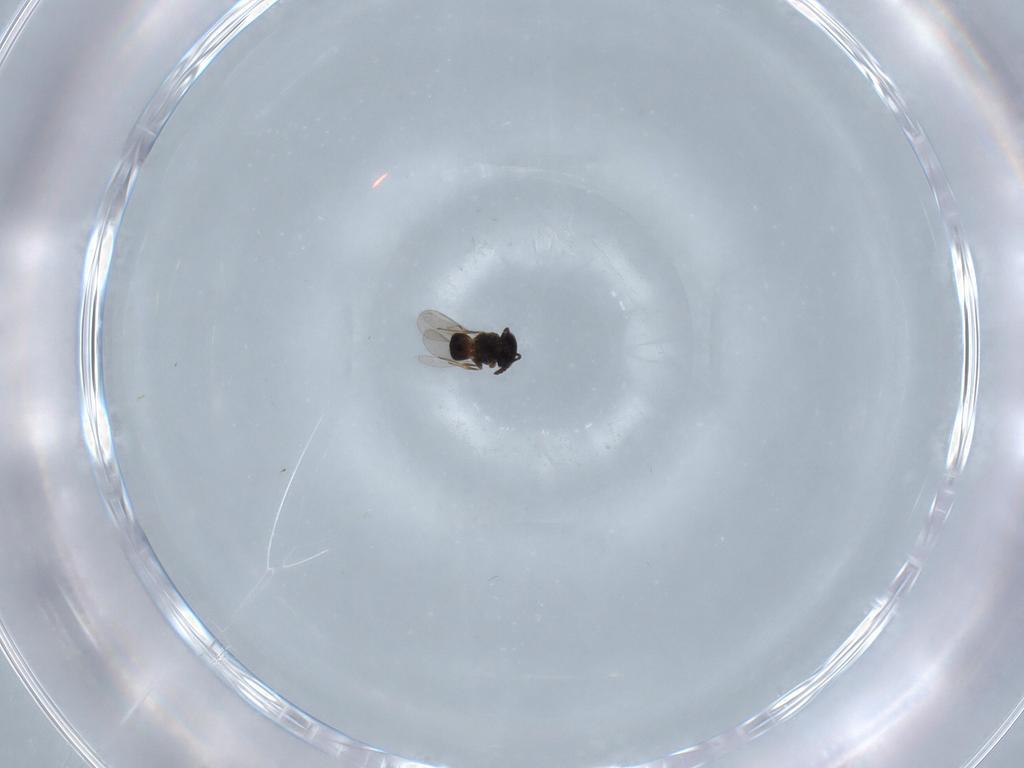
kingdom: Animalia
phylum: Arthropoda
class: Insecta
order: Hymenoptera
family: Scelionidae
